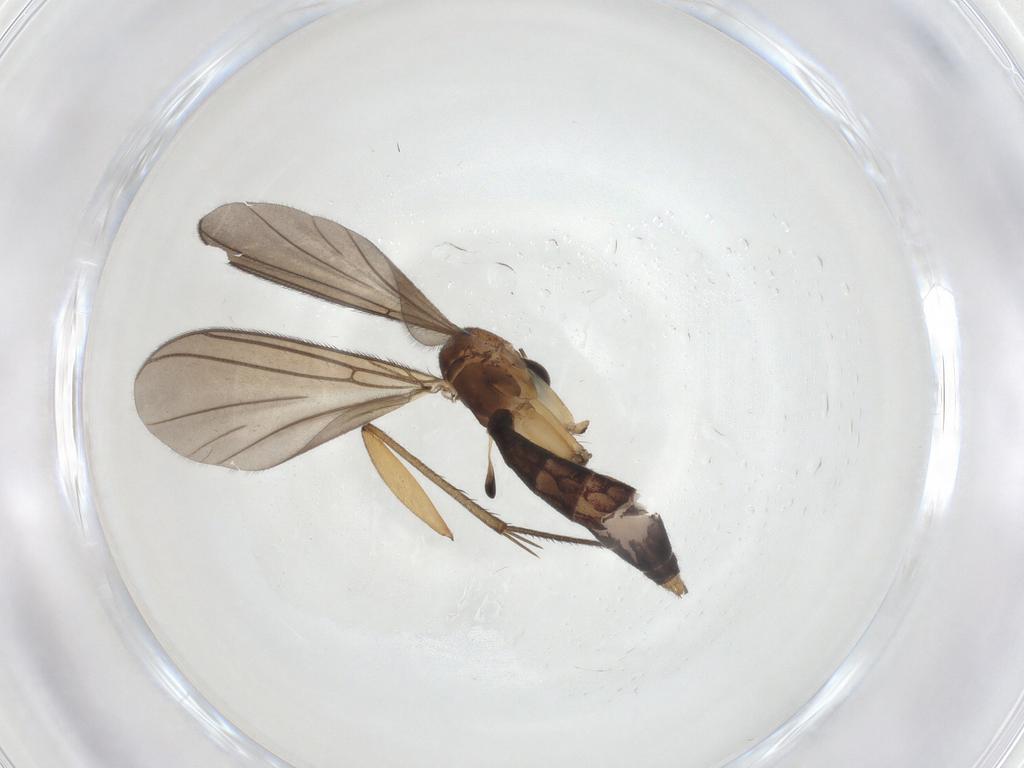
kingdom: Animalia
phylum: Arthropoda
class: Insecta
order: Diptera
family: Mycetophilidae
